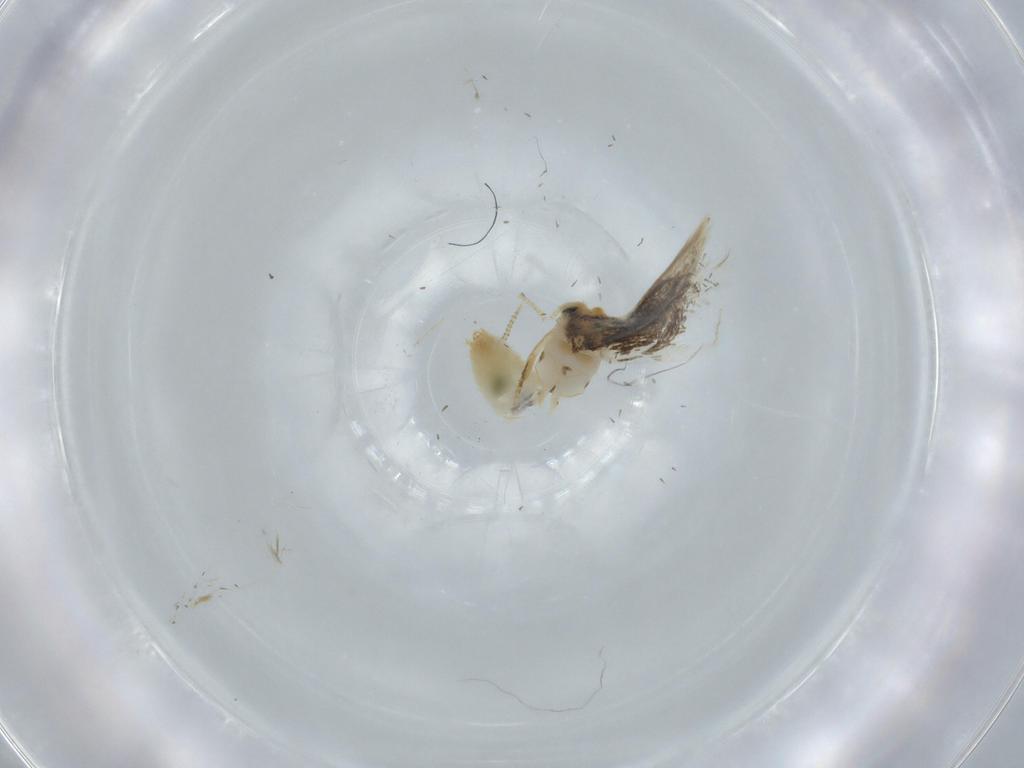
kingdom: Animalia
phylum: Arthropoda
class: Insecta
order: Lepidoptera
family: Nepticulidae
